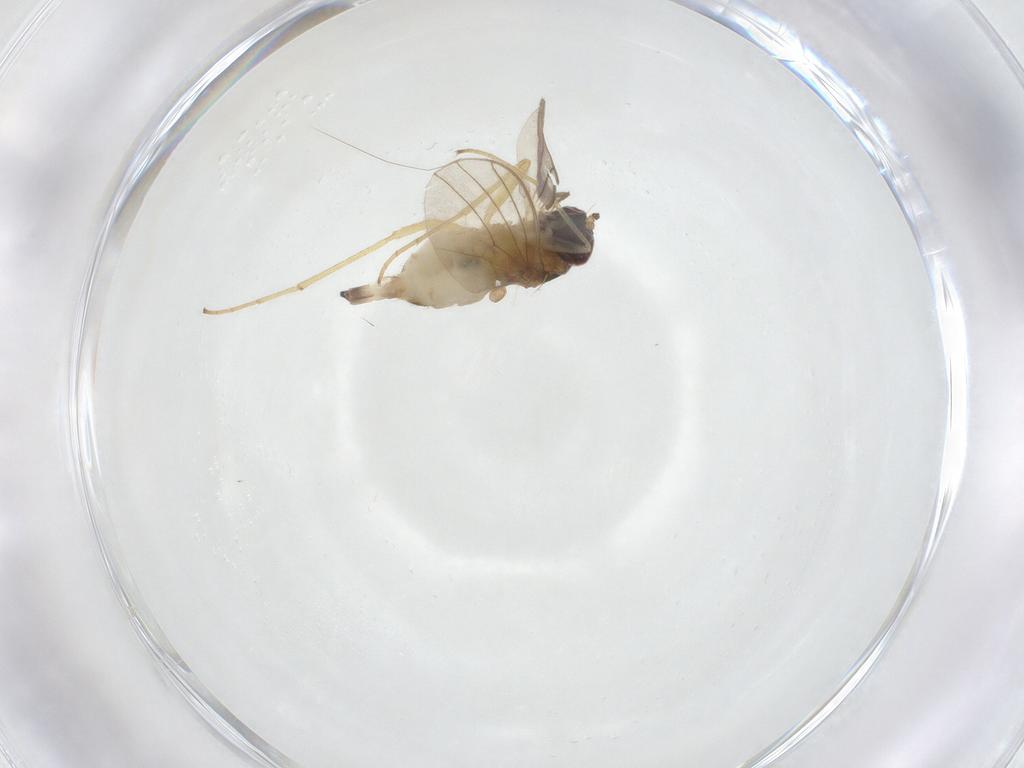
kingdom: Animalia
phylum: Arthropoda
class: Insecta
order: Diptera
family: Dolichopodidae
